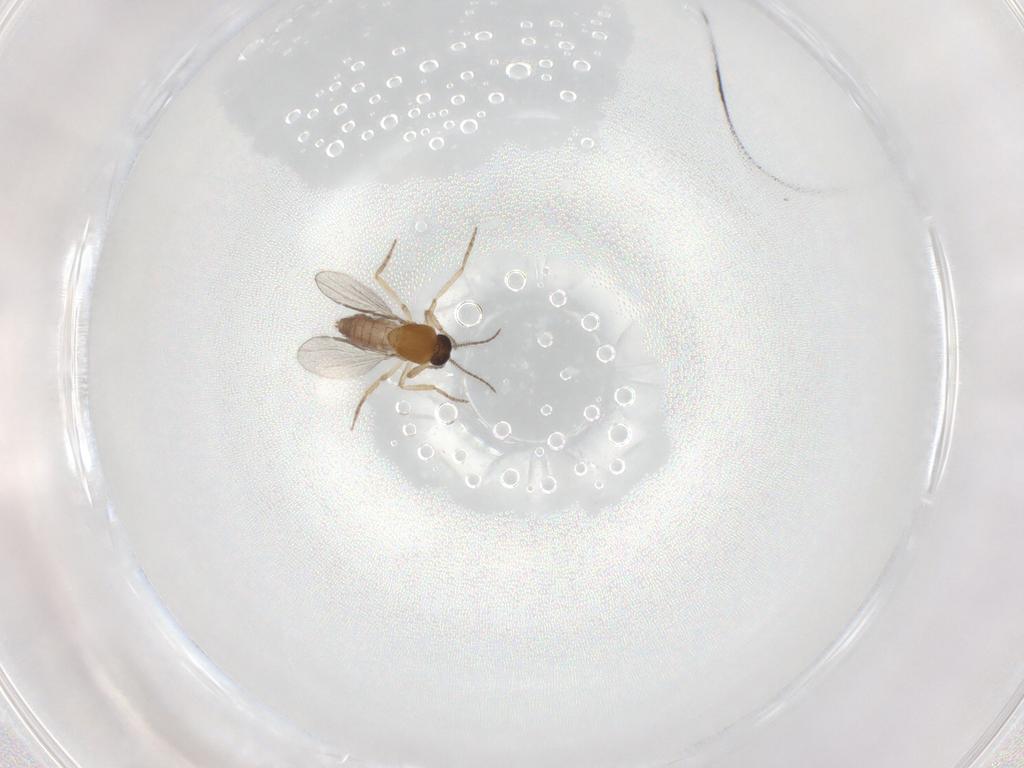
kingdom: Animalia
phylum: Arthropoda
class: Insecta
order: Diptera
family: Ceratopogonidae
